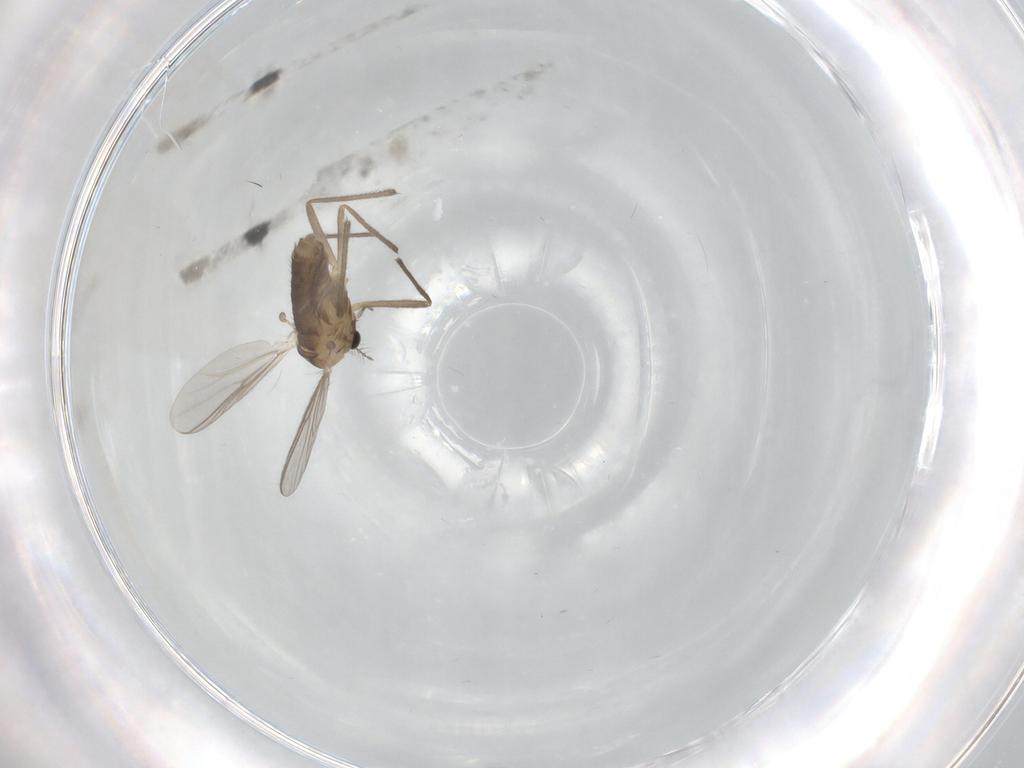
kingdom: Animalia
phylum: Arthropoda
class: Insecta
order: Diptera
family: Chironomidae
